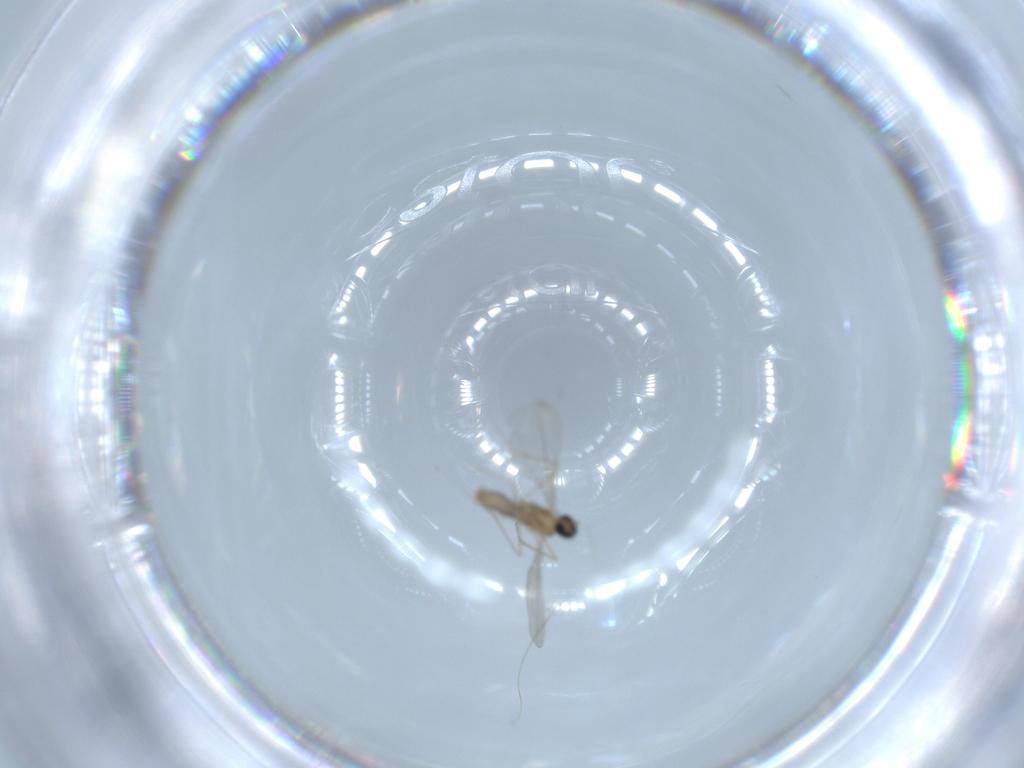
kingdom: Animalia
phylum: Arthropoda
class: Insecta
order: Diptera
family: Cecidomyiidae
